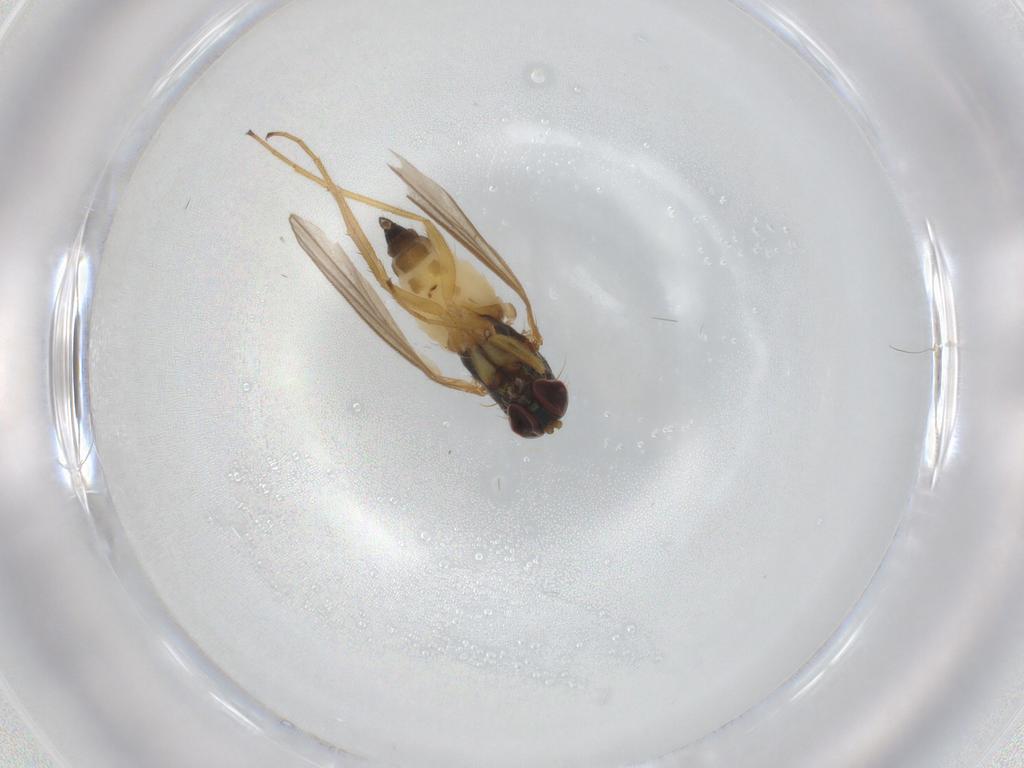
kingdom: Animalia
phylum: Arthropoda
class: Insecta
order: Diptera
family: Dolichopodidae
